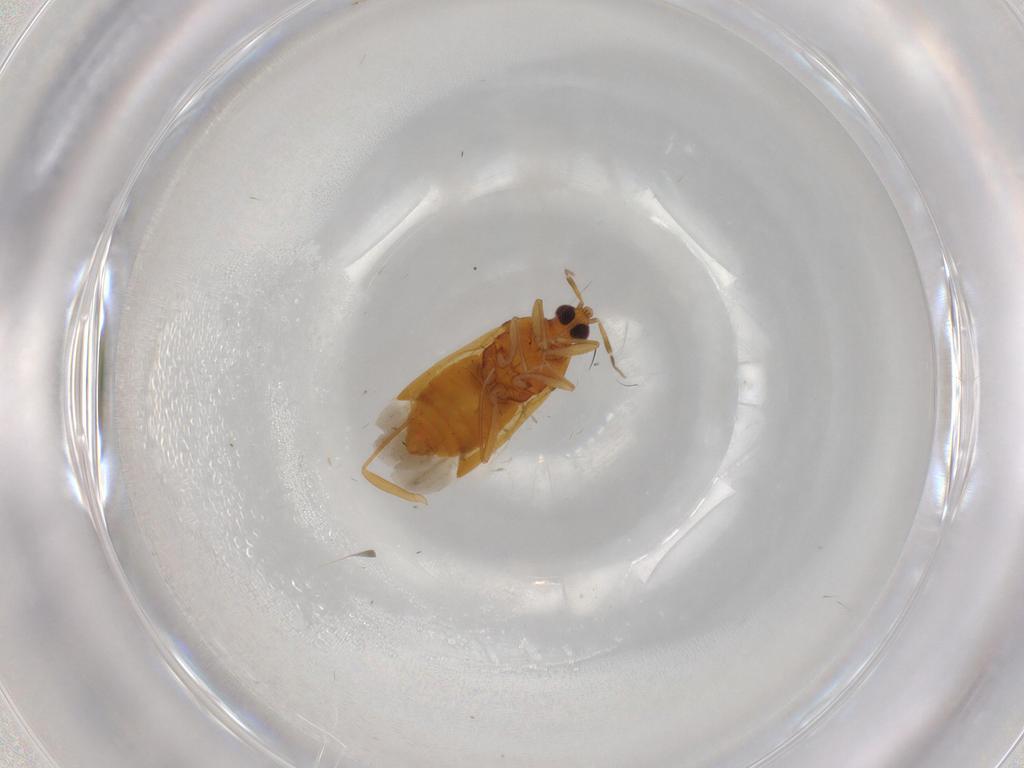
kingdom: Animalia
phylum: Arthropoda
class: Insecta
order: Hemiptera
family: Anthocoridae
